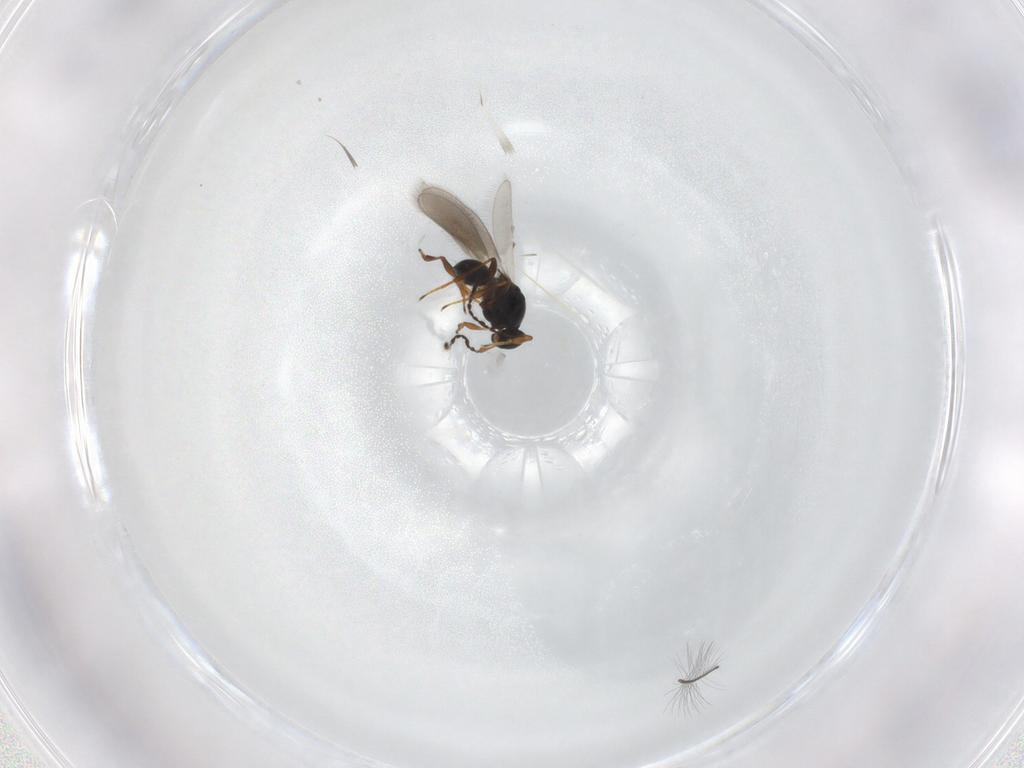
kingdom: Animalia
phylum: Arthropoda
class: Insecta
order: Hymenoptera
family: Platygastridae
